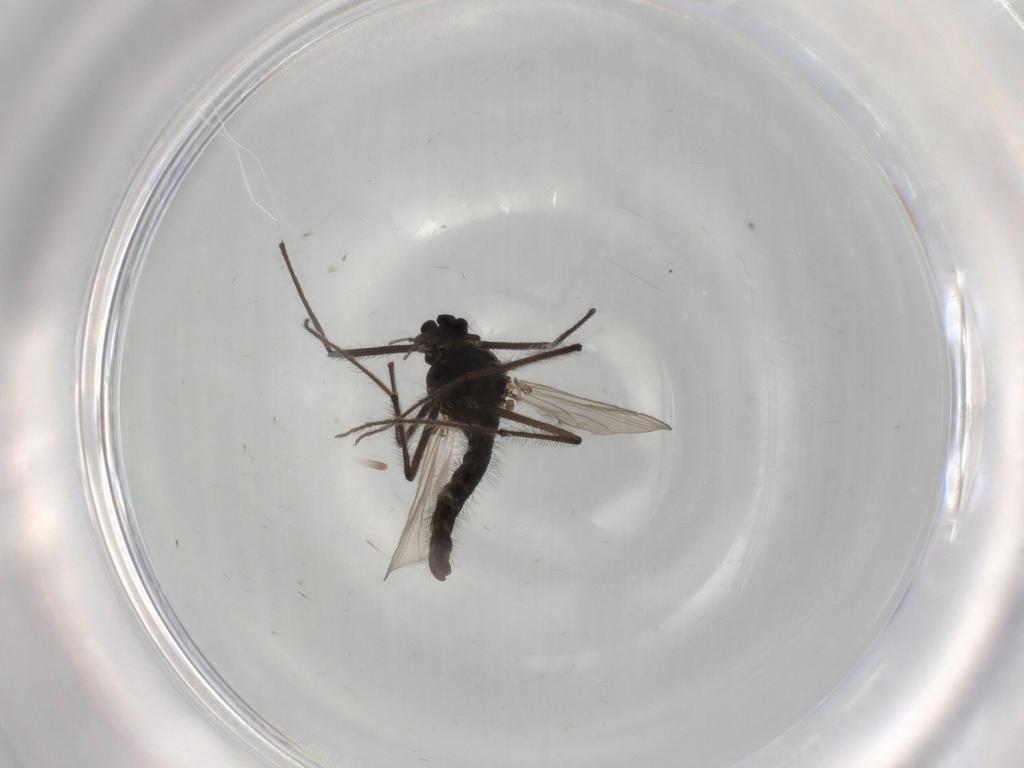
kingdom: Animalia
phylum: Arthropoda
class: Insecta
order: Diptera
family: Chironomidae
